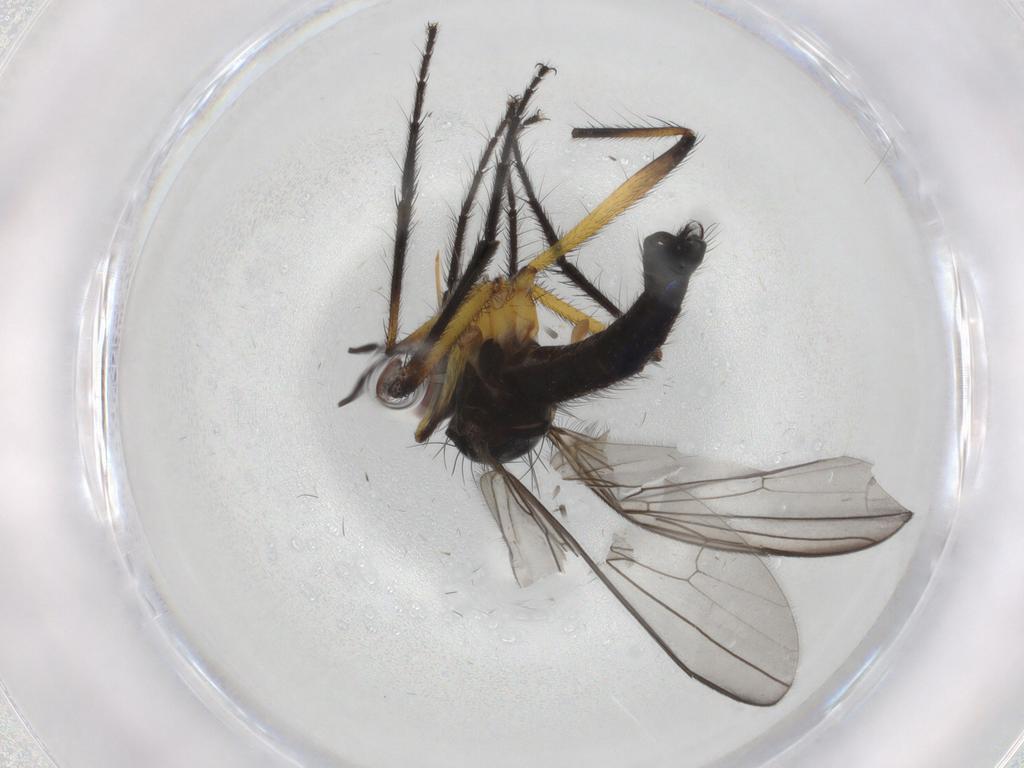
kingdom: Animalia
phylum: Arthropoda
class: Insecta
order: Diptera
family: Empididae
